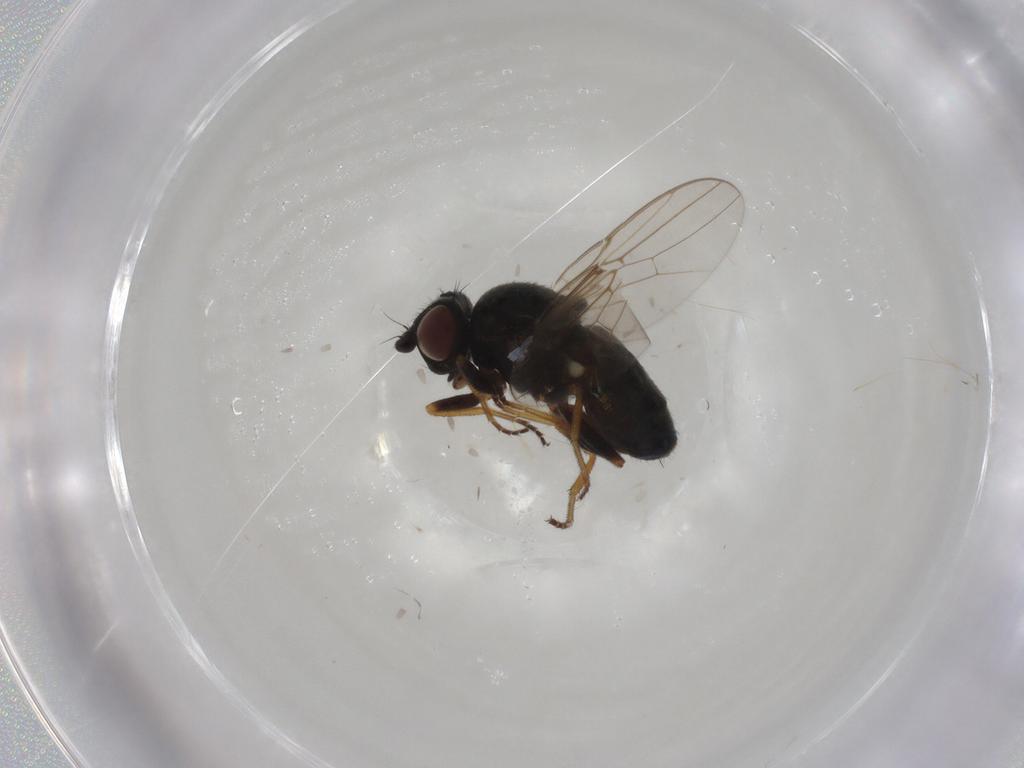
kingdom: Animalia
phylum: Arthropoda
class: Insecta
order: Diptera
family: Chloropidae
